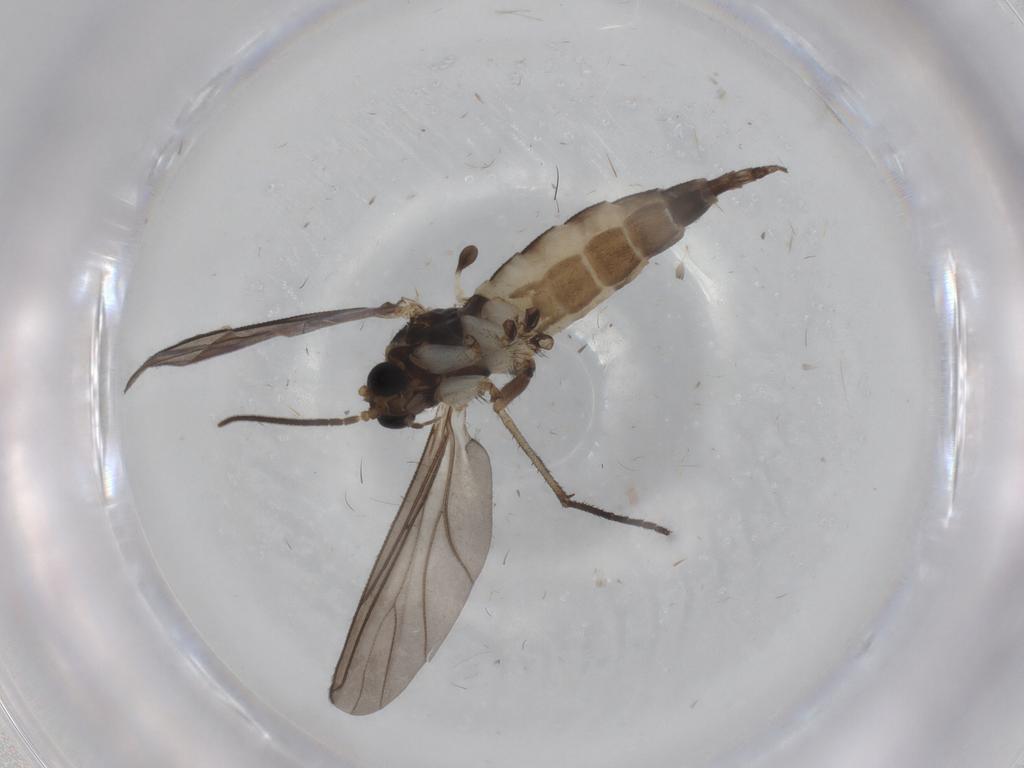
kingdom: Animalia
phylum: Arthropoda
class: Insecta
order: Diptera
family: Sciaridae
